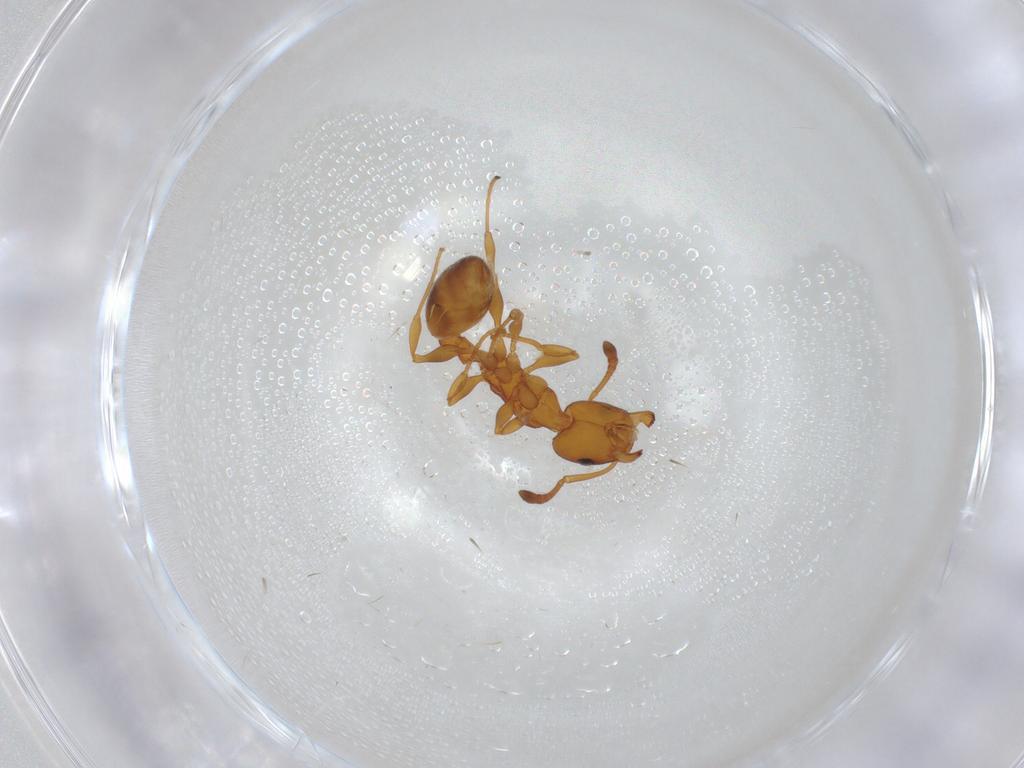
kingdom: Animalia
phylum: Arthropoda
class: Insecta
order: Hymenoptera
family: Formicidae
